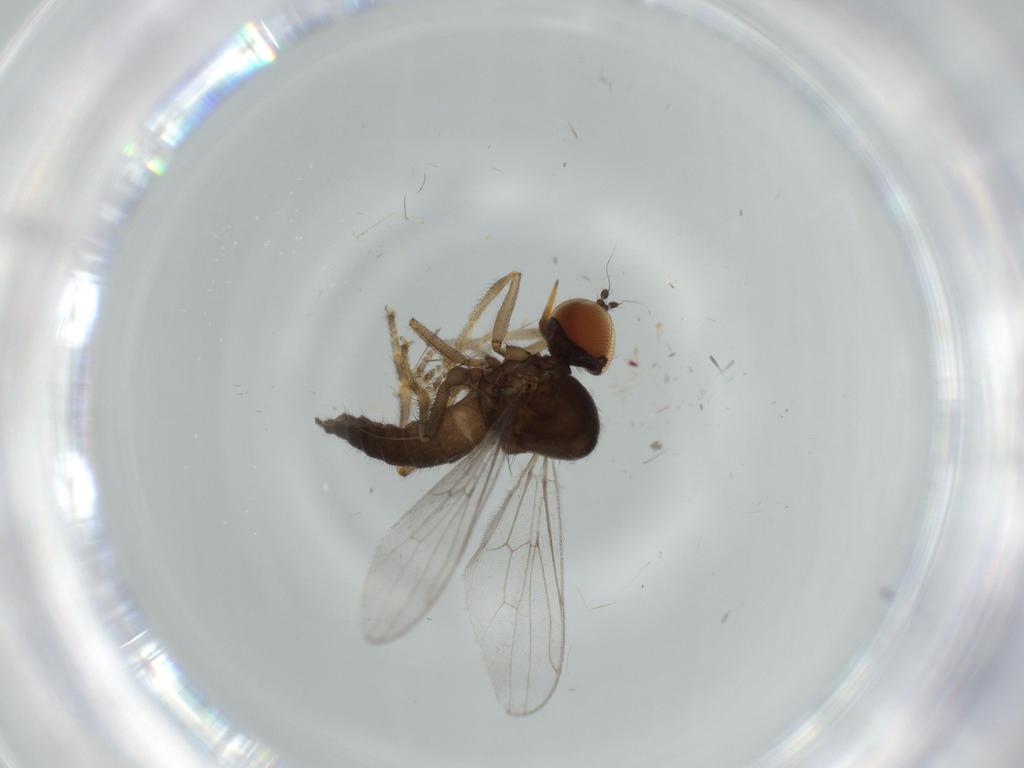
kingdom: Animalia
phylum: Arthropoda
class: Insecta
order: Diptera
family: Hybotidae
